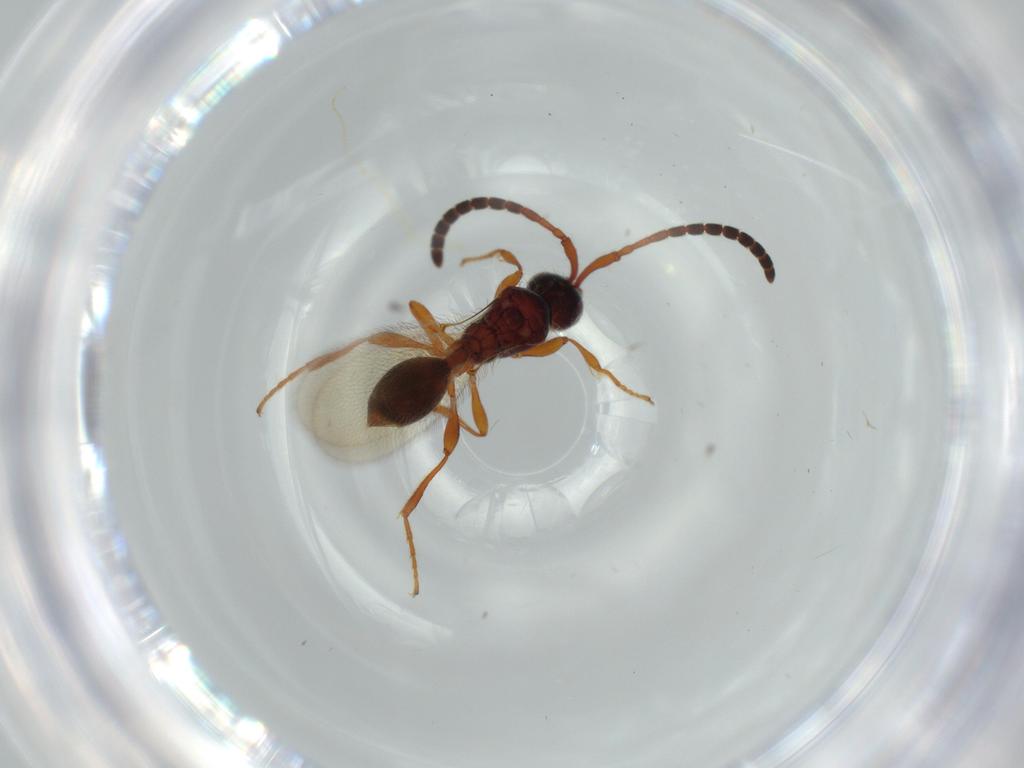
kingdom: Animalia
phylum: Arthropoda
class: Insecta
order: Hymenoptera
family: Diapriidae
